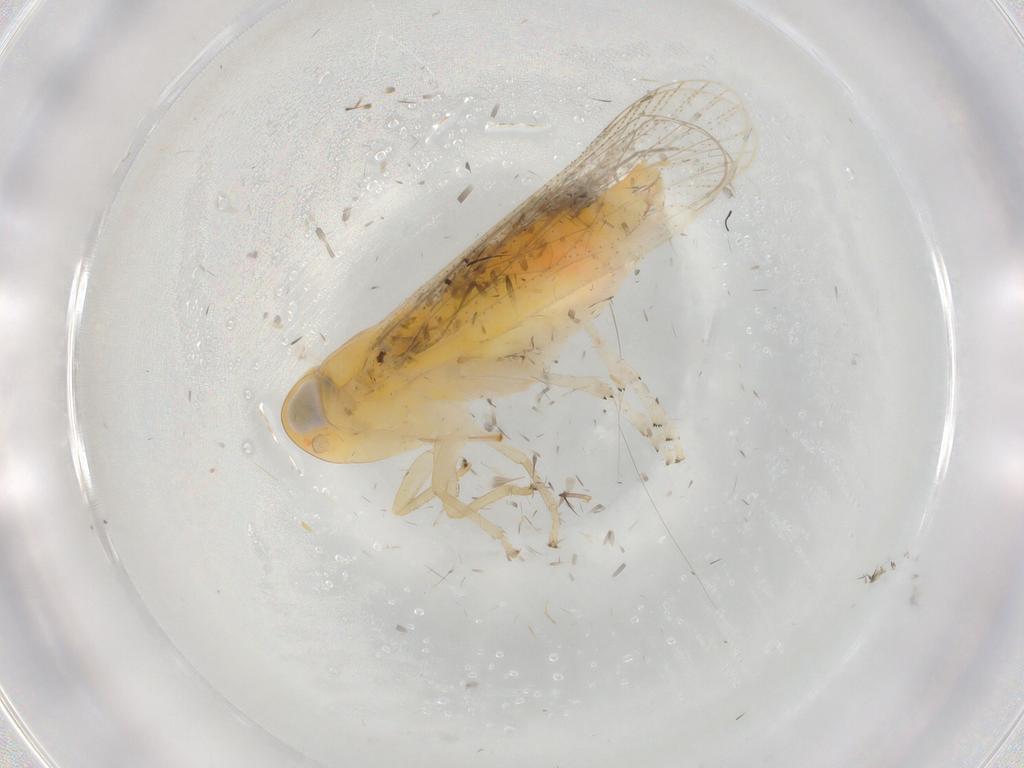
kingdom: Animalia
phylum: Arthropoda
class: Insecta
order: Hemiptera
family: Cixiidae
